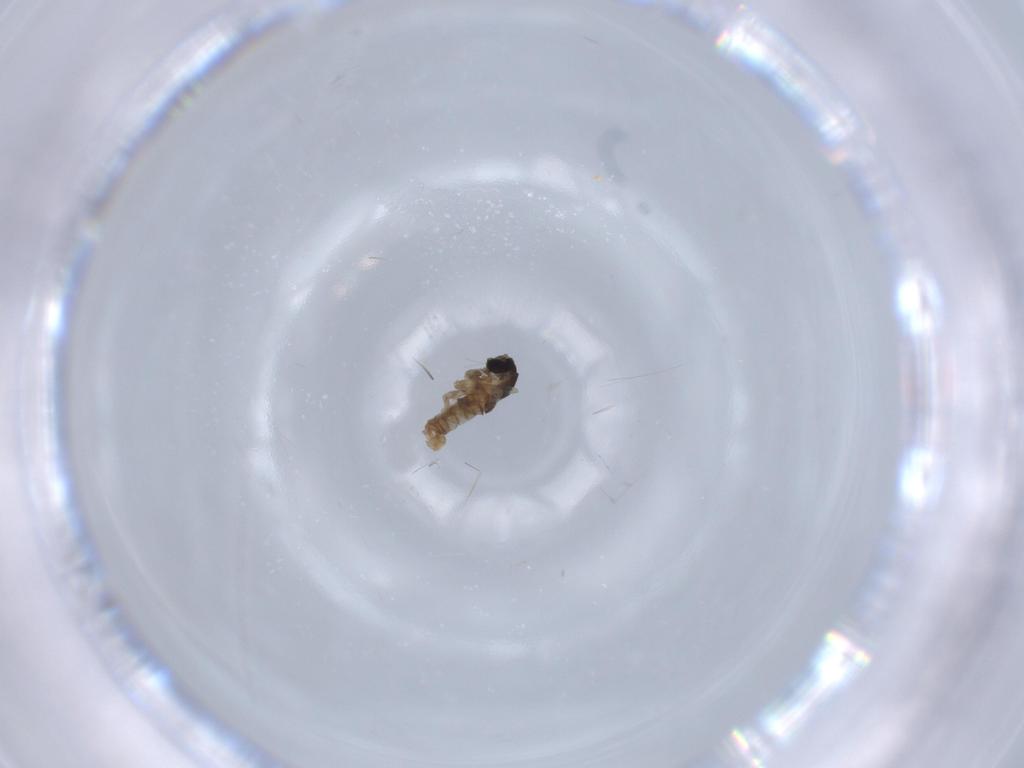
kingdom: Animalia
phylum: Arthropoda
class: Insecta
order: Diptera
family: Cecidomyiidae
